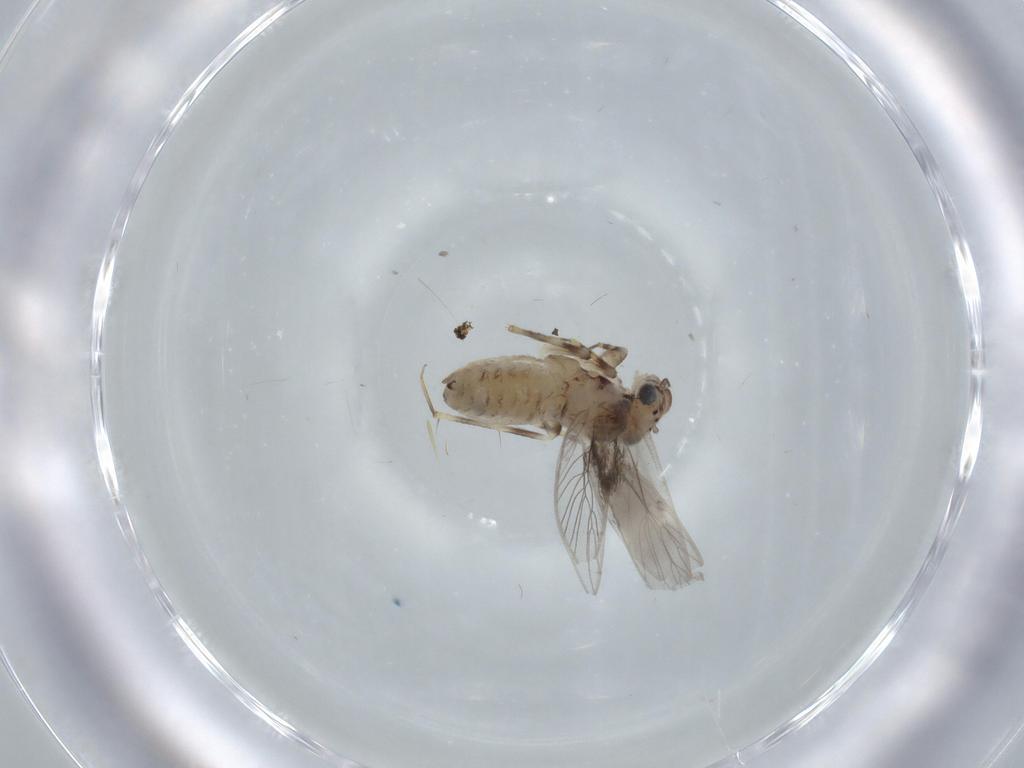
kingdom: Animalia
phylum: Arthropoda
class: Insecta
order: Psocodea
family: Lepidopsocidae
